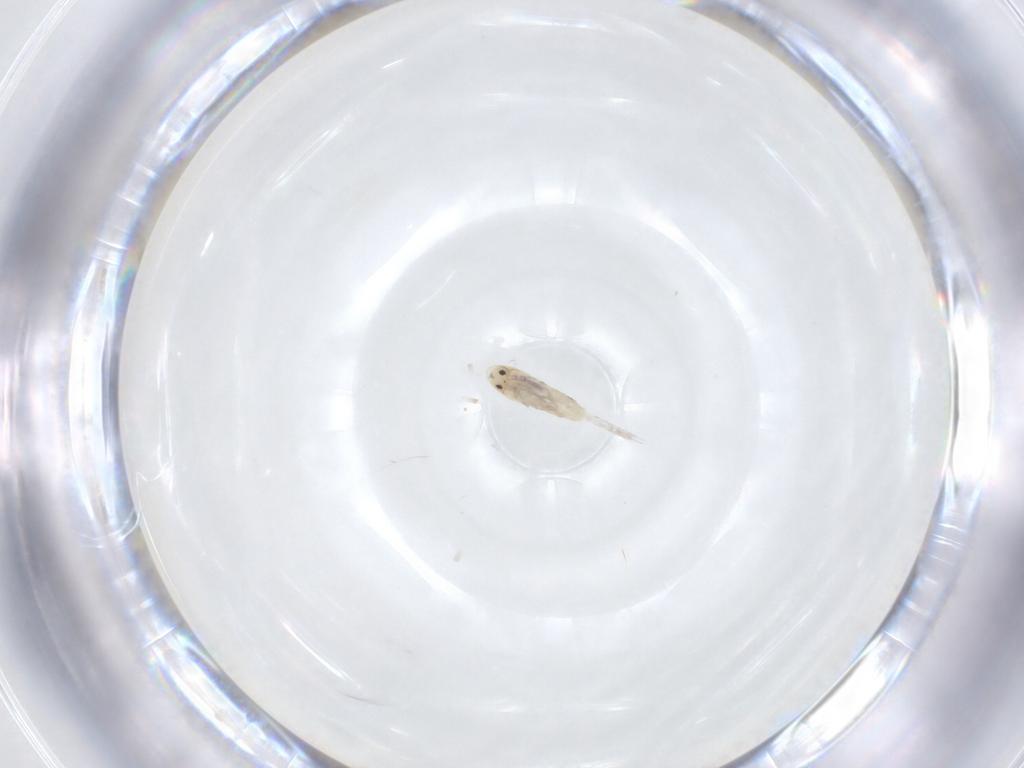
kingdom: Animalia
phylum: Arthropoda
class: Collembola
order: Entomobryomorpha
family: Entomobryidae
